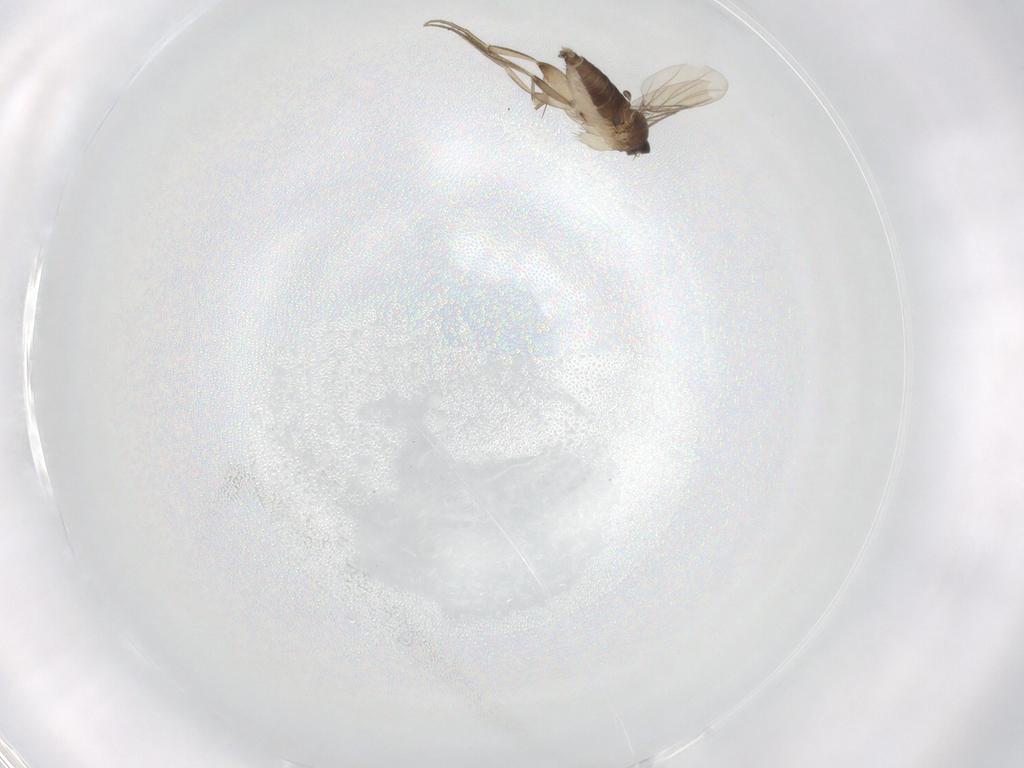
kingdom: Animalia
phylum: Arthropoda
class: Insecta
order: Diptera
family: Phoridae
